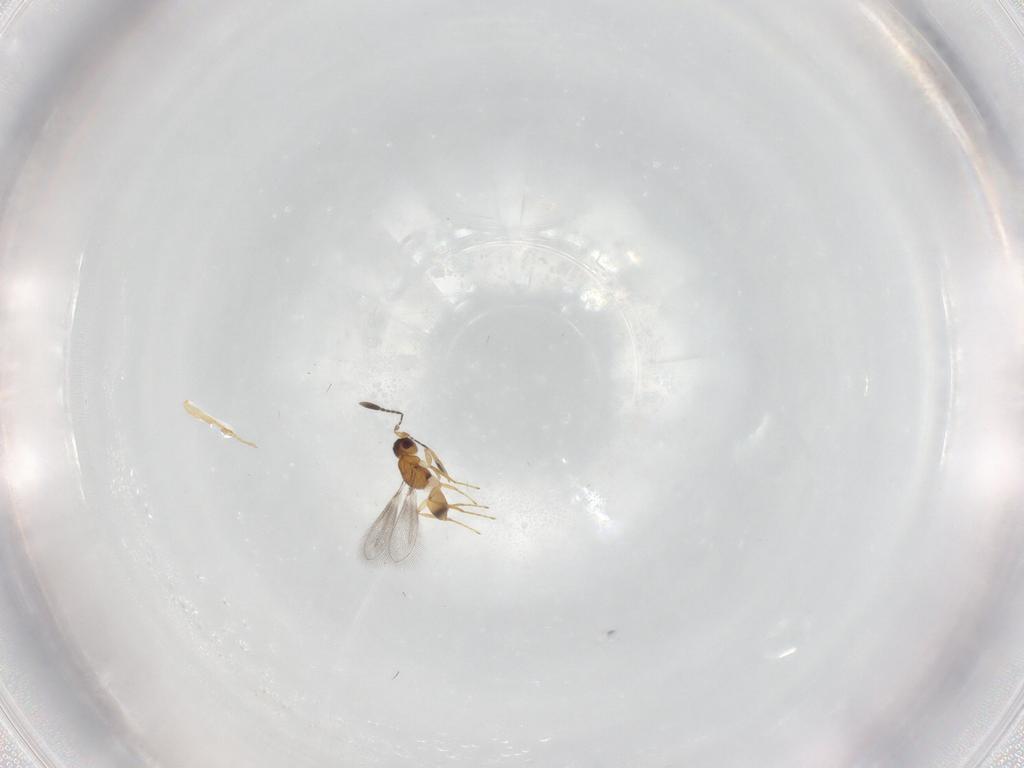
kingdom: Animalia
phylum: Arthropoda
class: Insecta
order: Hymenoptera
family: Mymaridae
